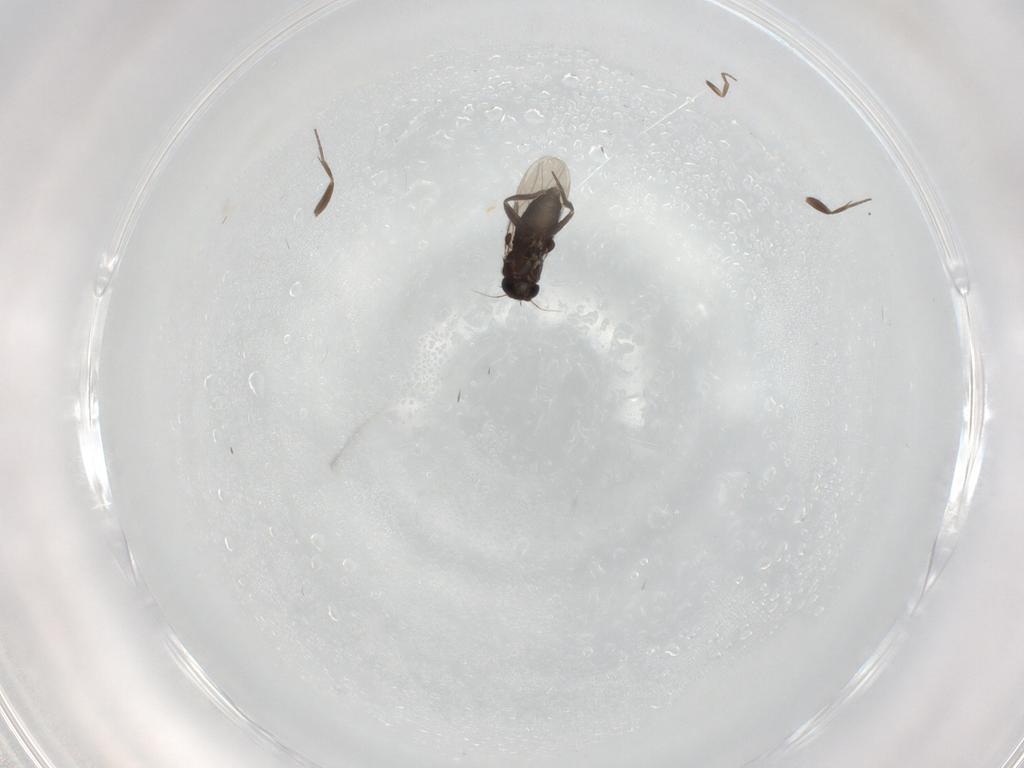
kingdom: Animalia
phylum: Arthropoda
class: Insecta
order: Diptera
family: Phoridae
